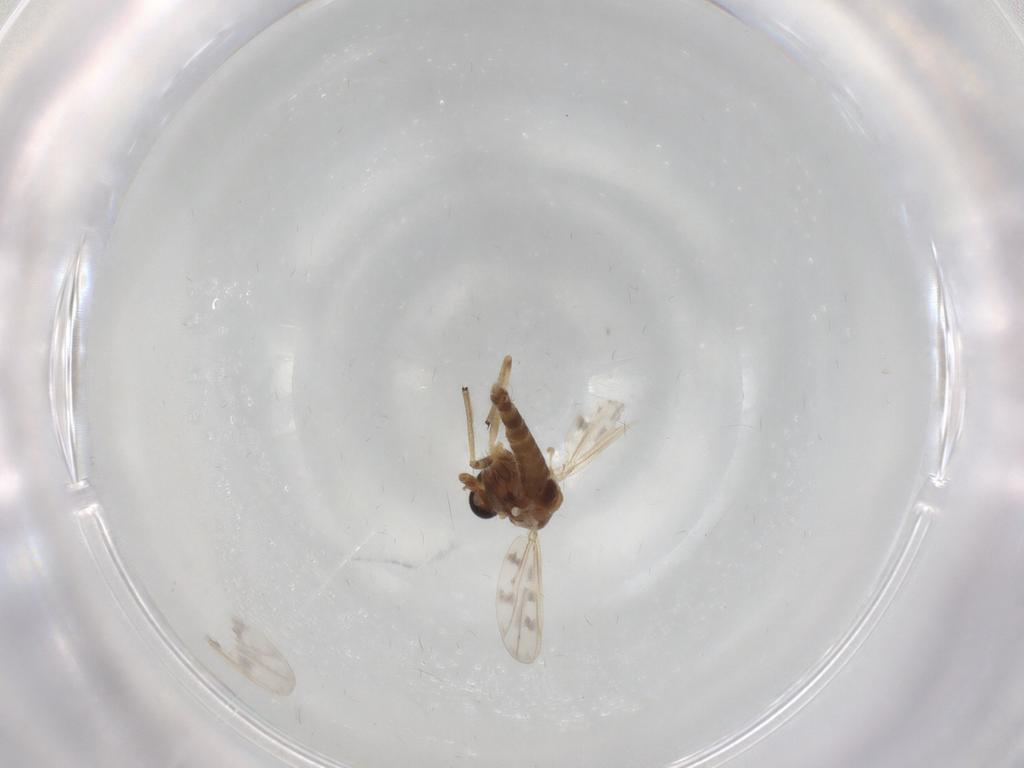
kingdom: Animalia
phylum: Arthropoda
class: Insecta
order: Diptera
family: Chironomidae
